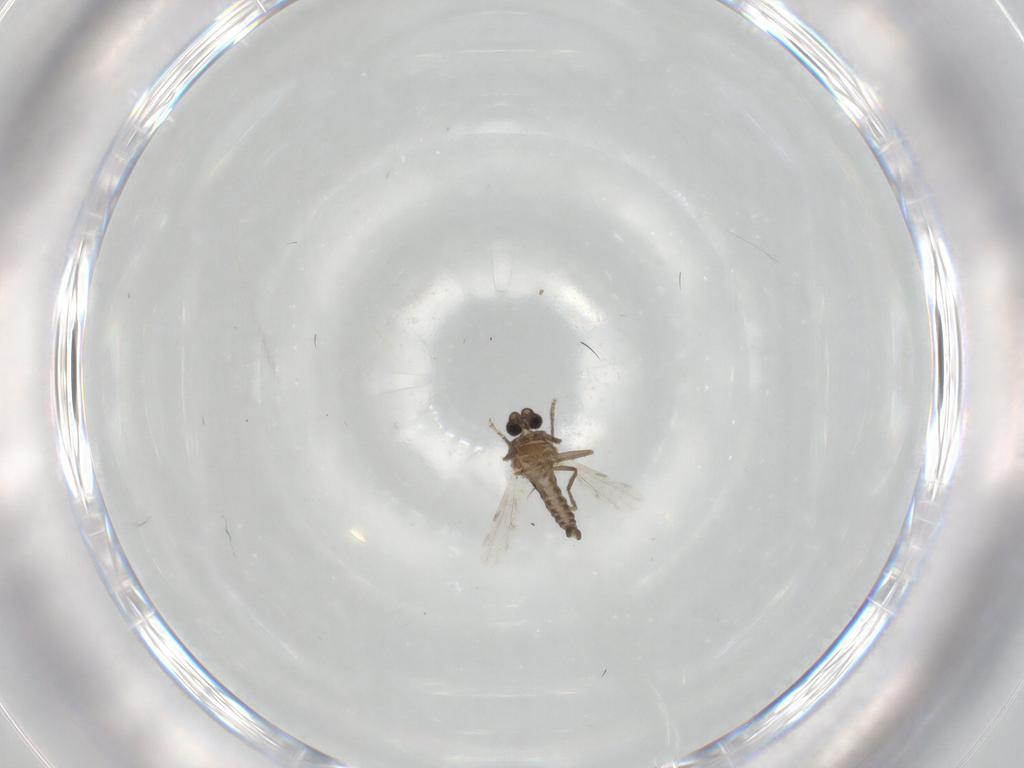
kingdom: Animalia
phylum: Arthropoda
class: Insecta
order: Diptera
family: Ceratopogonidae
